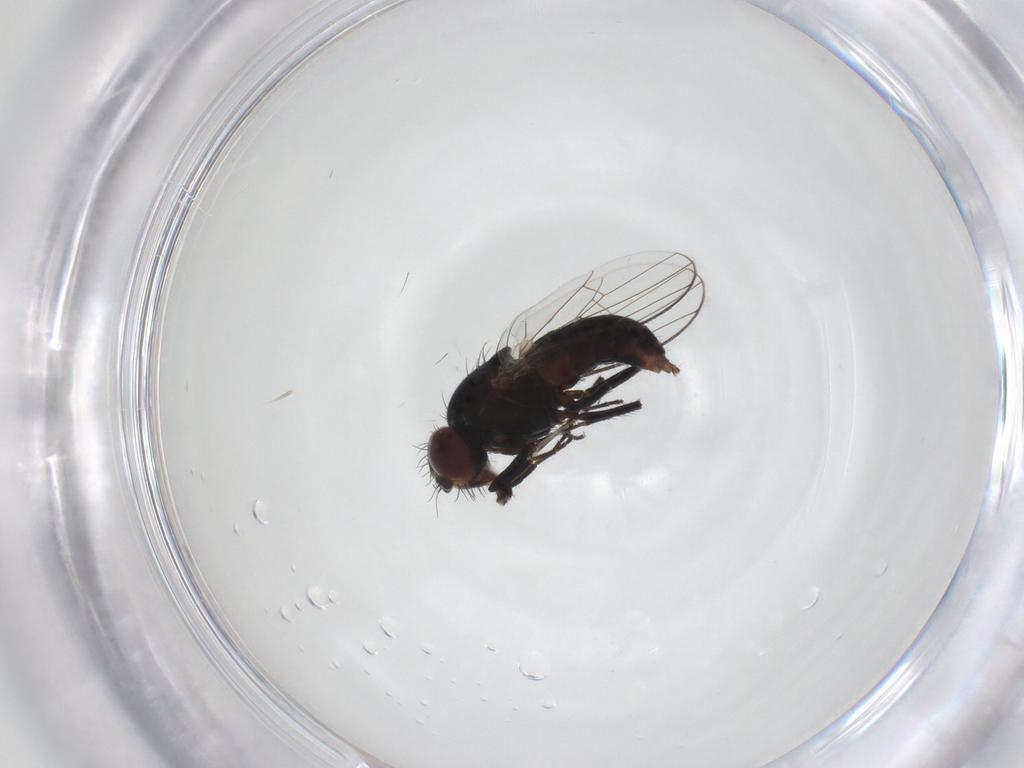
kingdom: Animalia
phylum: Arthropoda
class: Insecta
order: Diptera
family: Carnidae
